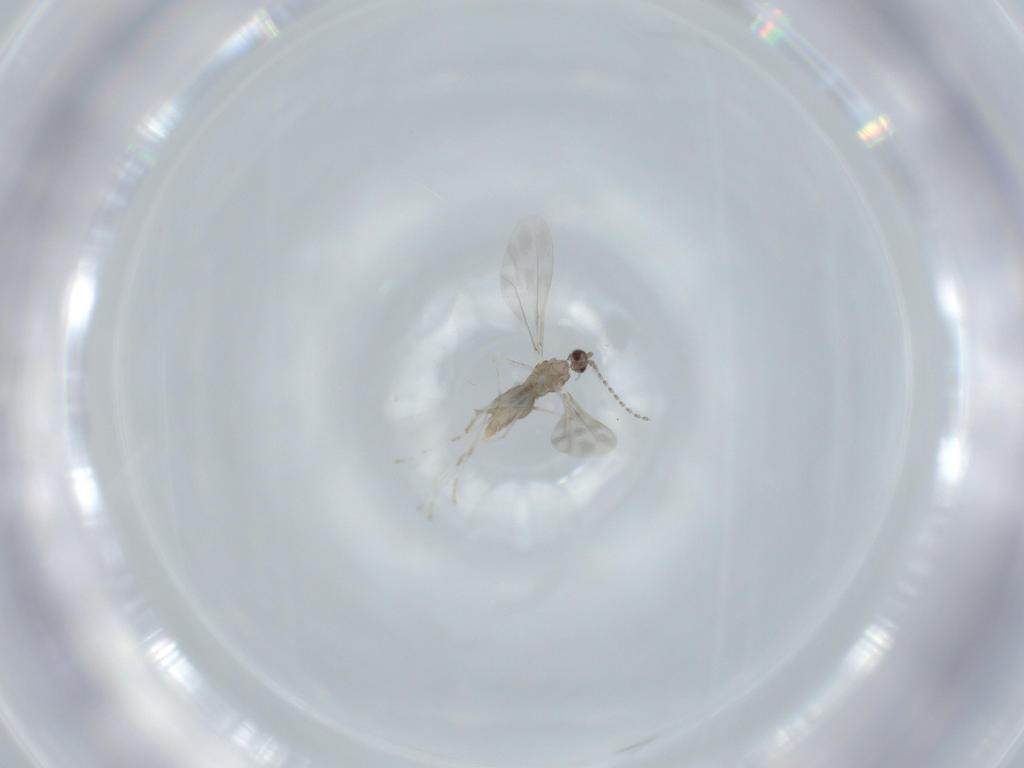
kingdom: Animalia
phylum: Arthropoda
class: Insecta
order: Diptera
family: Cecidomyiidae
